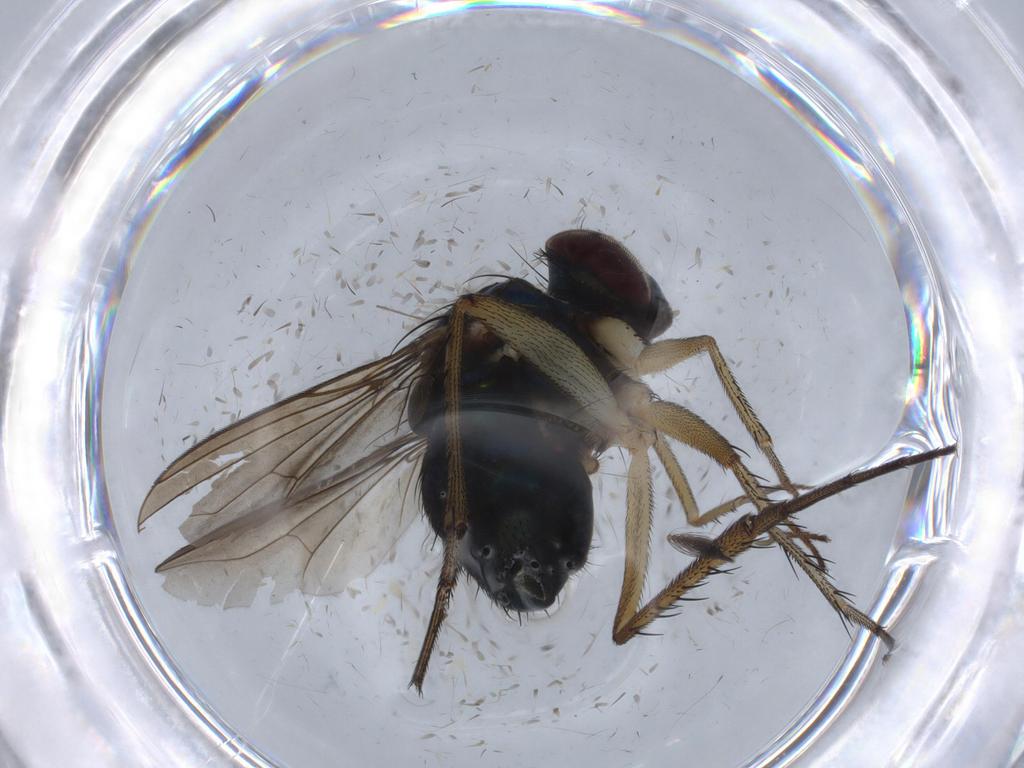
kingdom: Animalia
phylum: Arthropoda
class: Insecta
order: Diptera
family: Dolichopodidae
